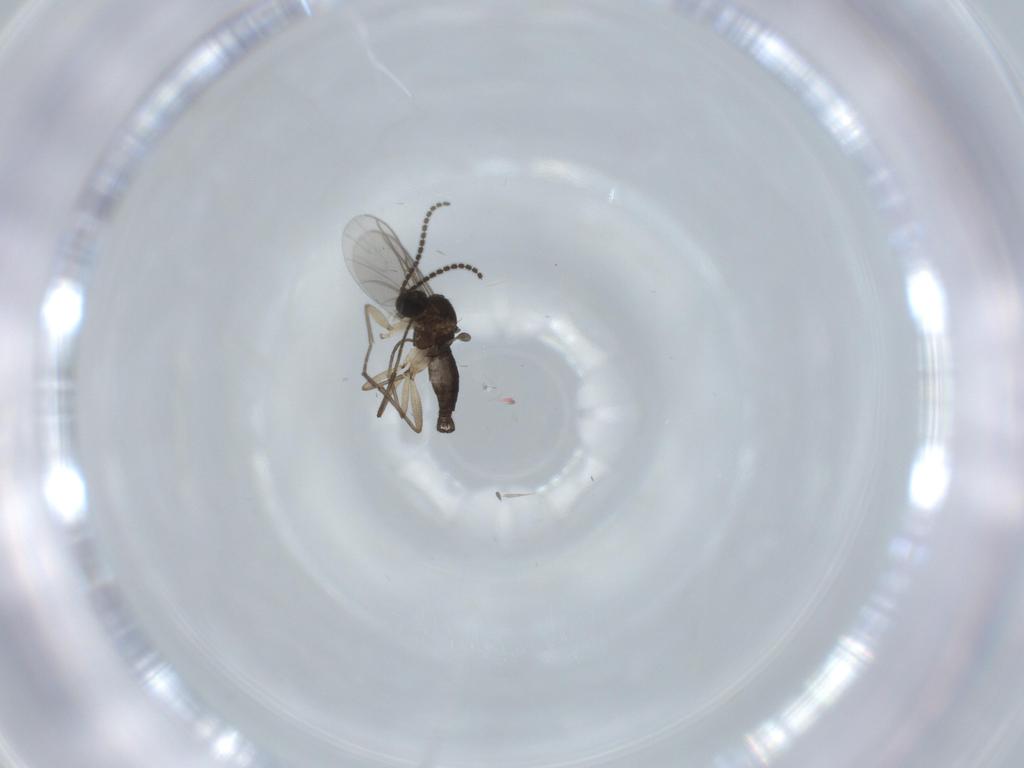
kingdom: Animalia
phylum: Arthropoda
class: Insecta
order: Diptera
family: Sciaridae
